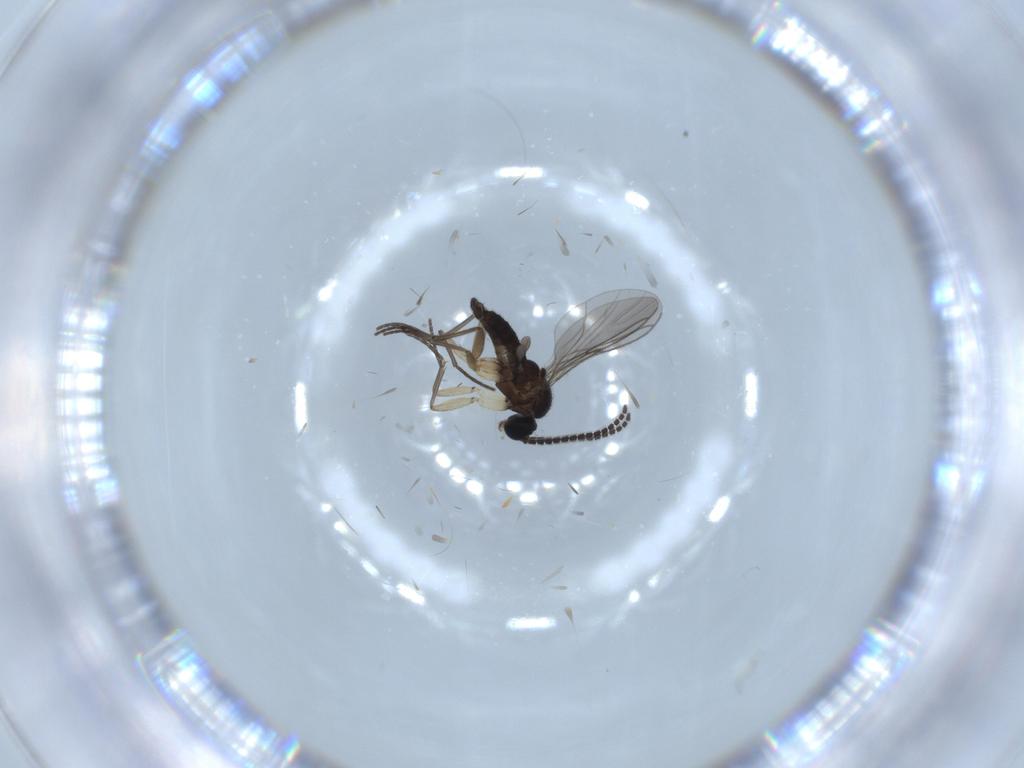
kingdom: Animalia
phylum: Arthropoda
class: Insecta
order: Diptera
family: Sciaridae
